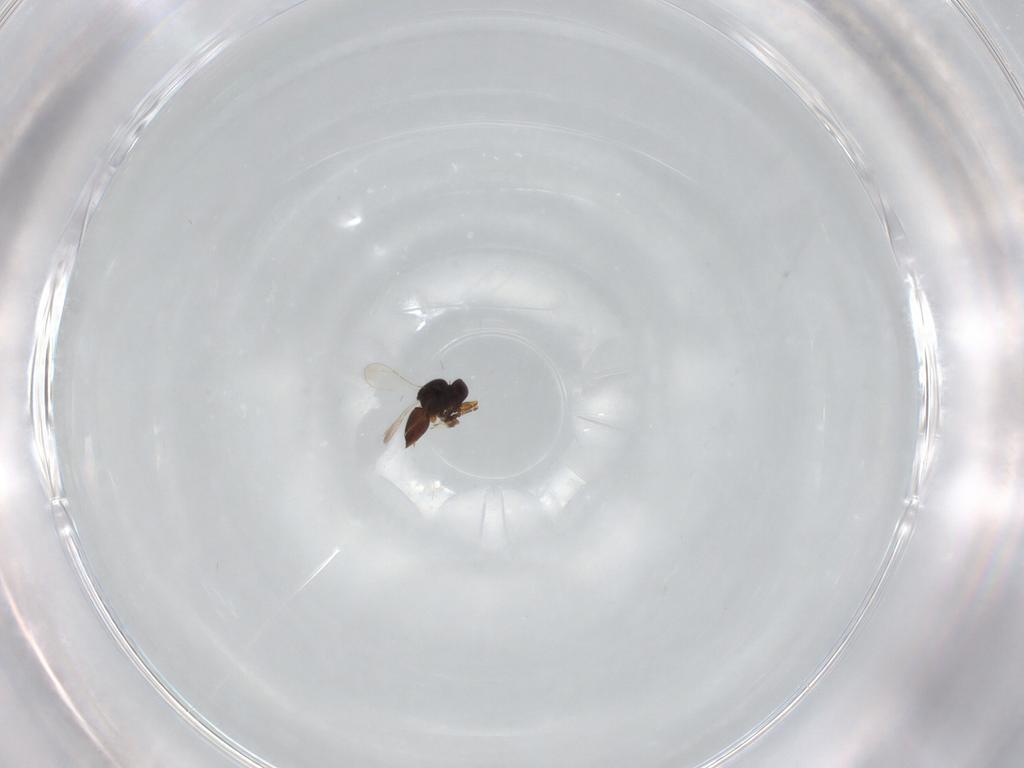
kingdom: Animalia
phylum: Arthropoda
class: Insecta
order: Hymenoptera
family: Ceraphronidae
